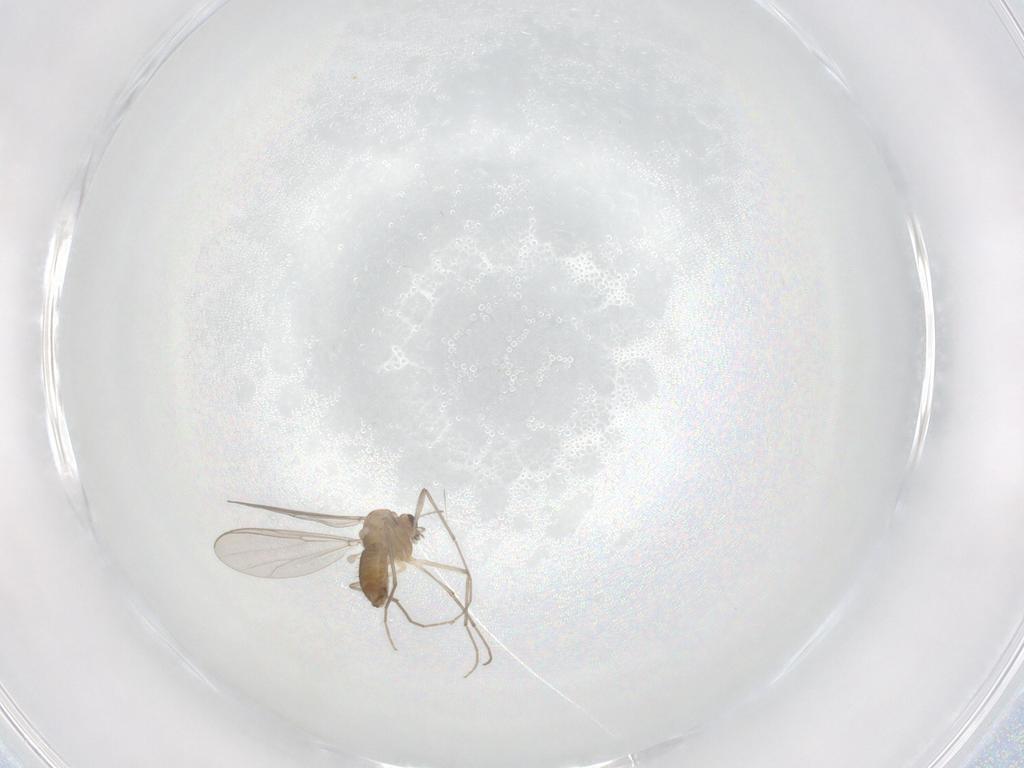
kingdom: Animalia
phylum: Arthropoda
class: Insecta
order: Diptera
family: Chironomidae
